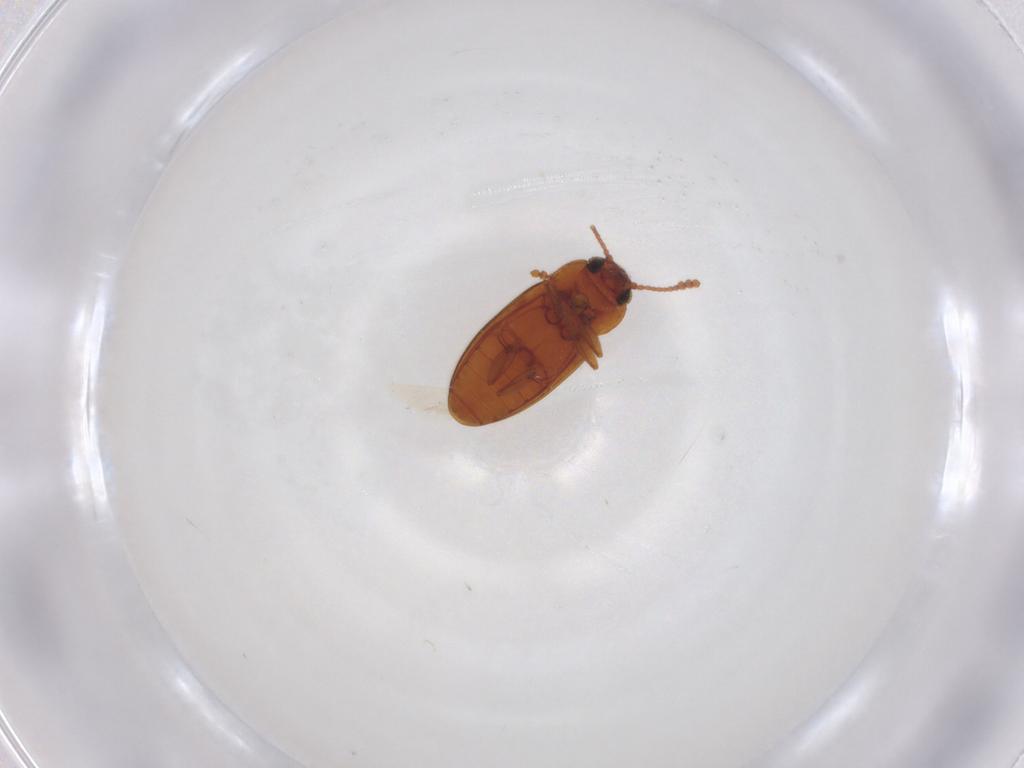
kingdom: Animalia
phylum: Arthropoda
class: Insecta
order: Coleoptera
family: Erotylidae
